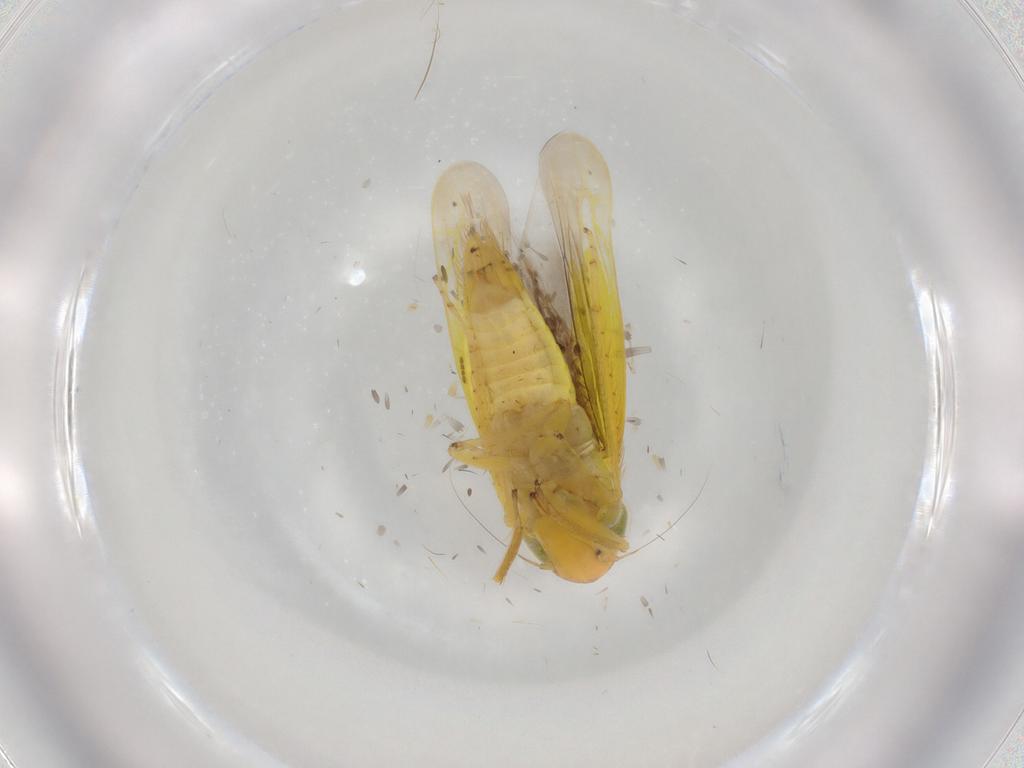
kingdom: Animalia
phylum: Arthropoda
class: Insecta
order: Hemiptera
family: Cicadellidae
